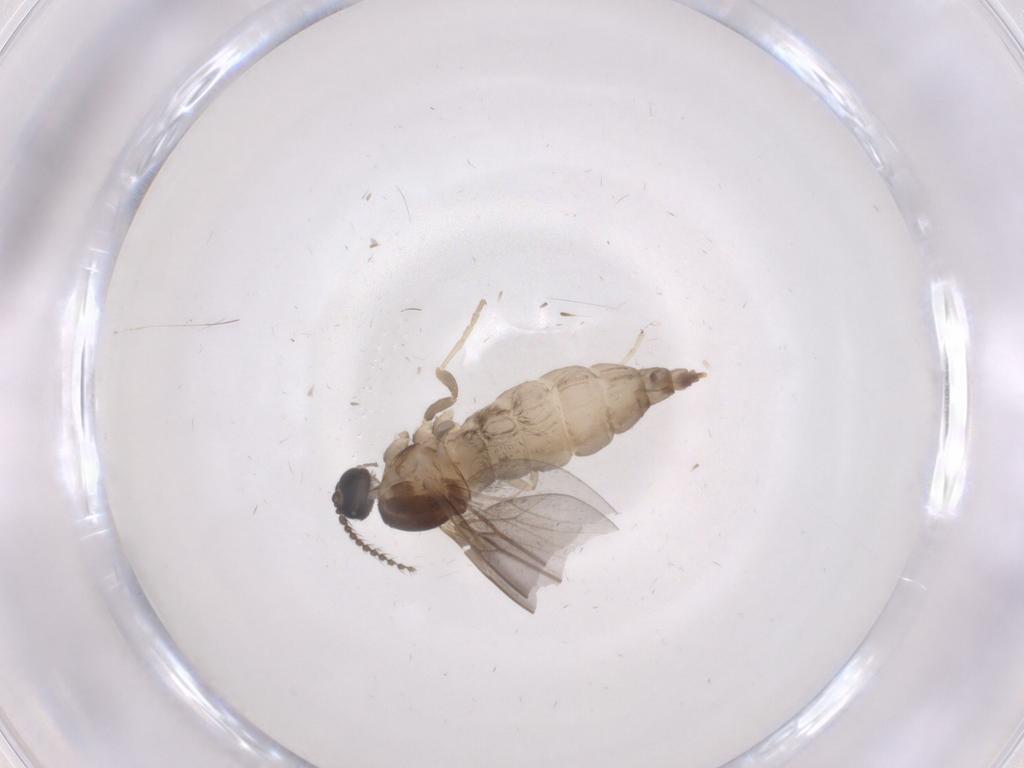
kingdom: Animalia
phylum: Arthropoda
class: Insecta
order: Diptera
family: Cecidomyiidae
